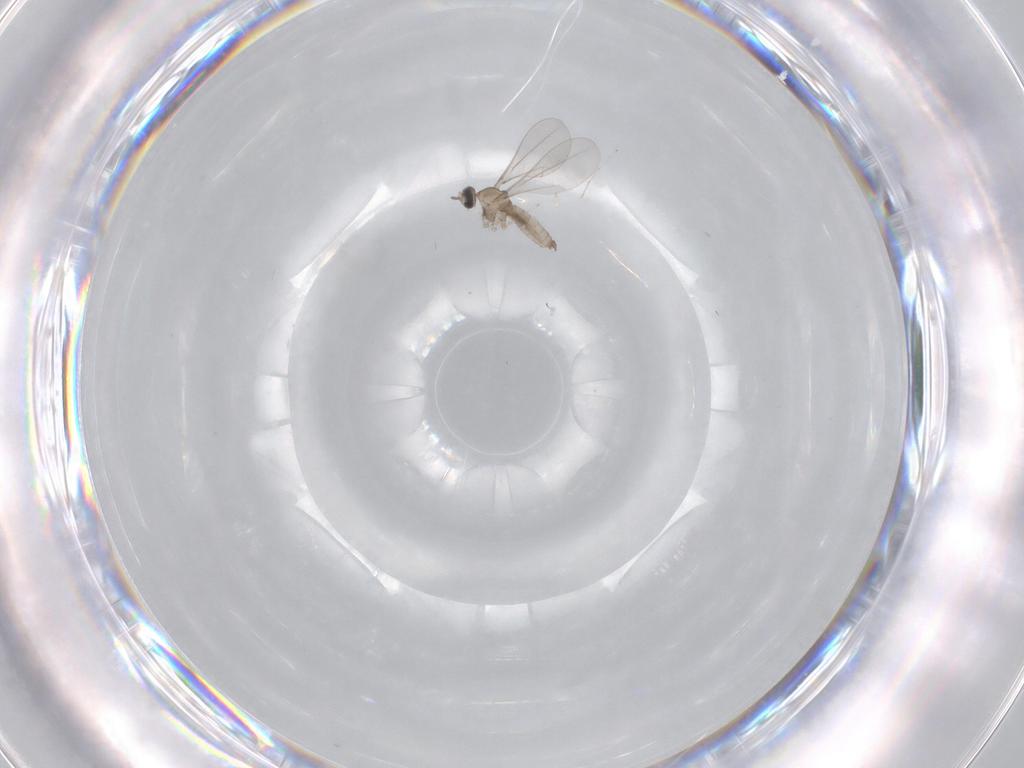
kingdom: Animalia
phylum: Arthropoda
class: Insecta
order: Diptera
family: Cecidomyiidae
